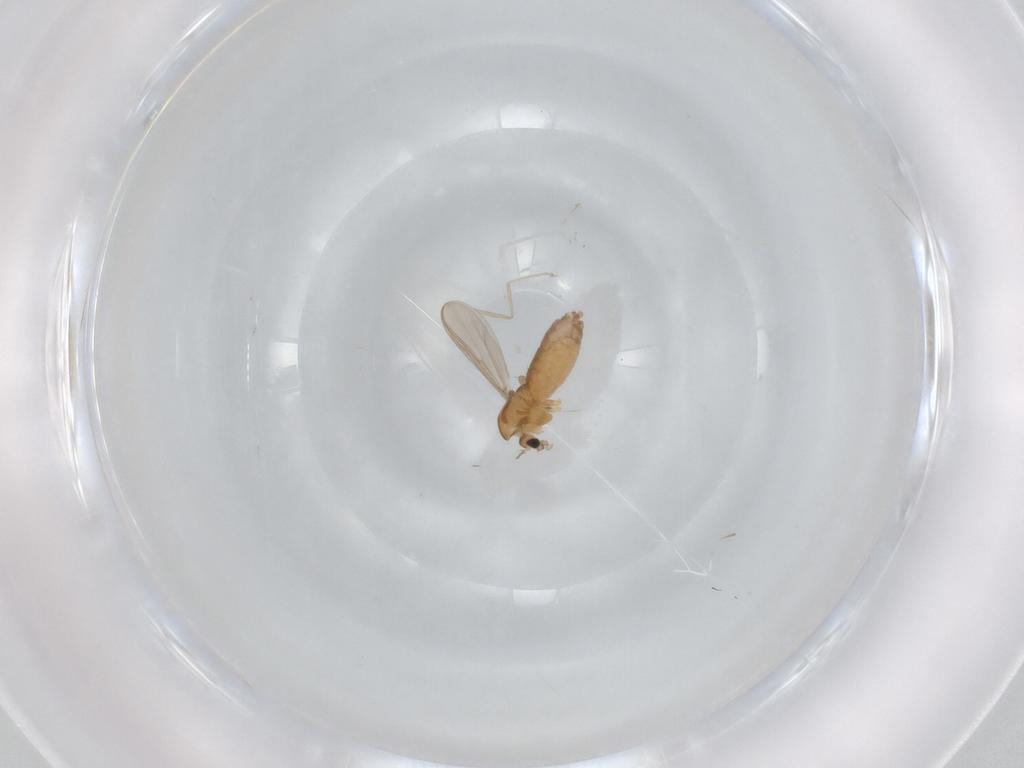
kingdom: Animalia
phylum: Arthropoda
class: Insecta
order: Diptera
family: Chironomidae
